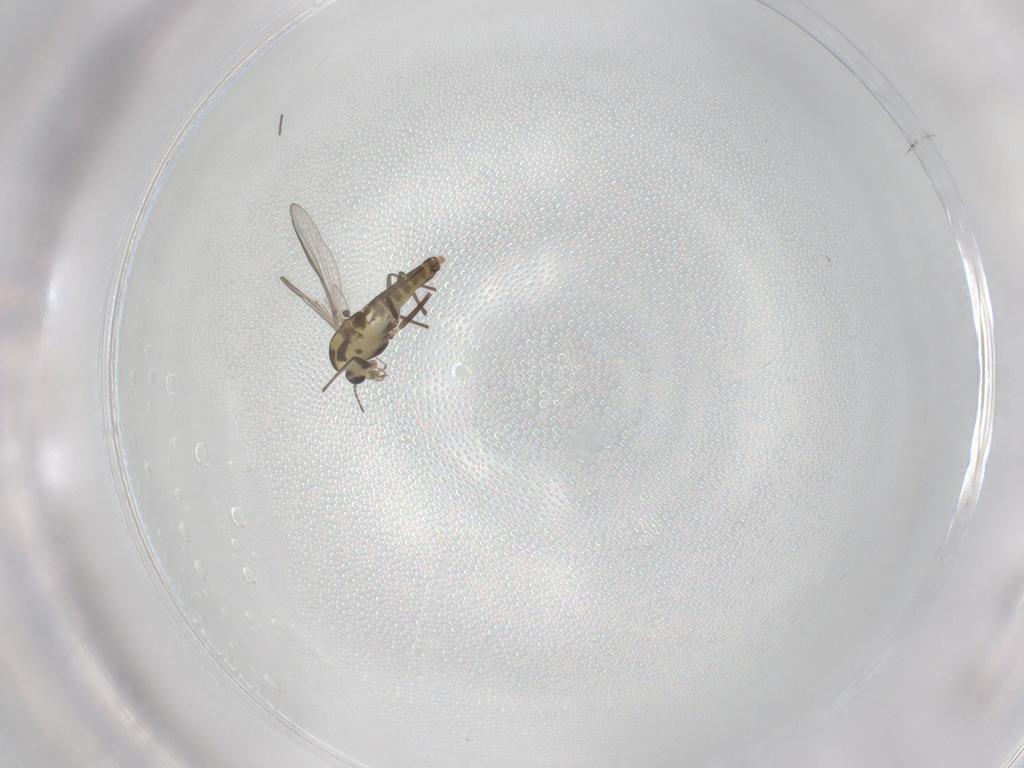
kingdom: Animalia
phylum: Arthropoda
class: Insecta
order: Diptera
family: Chironomidae
